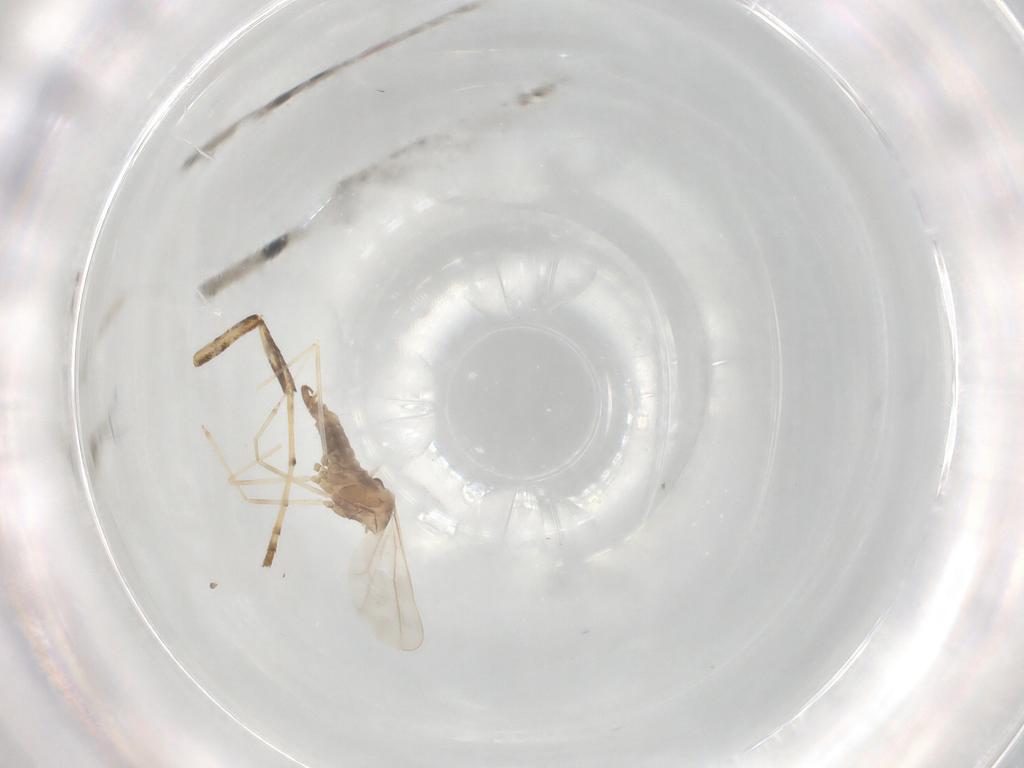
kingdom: Animalia
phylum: Arthropoda
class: Insecta
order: Diptera
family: Cecidomyiidae
